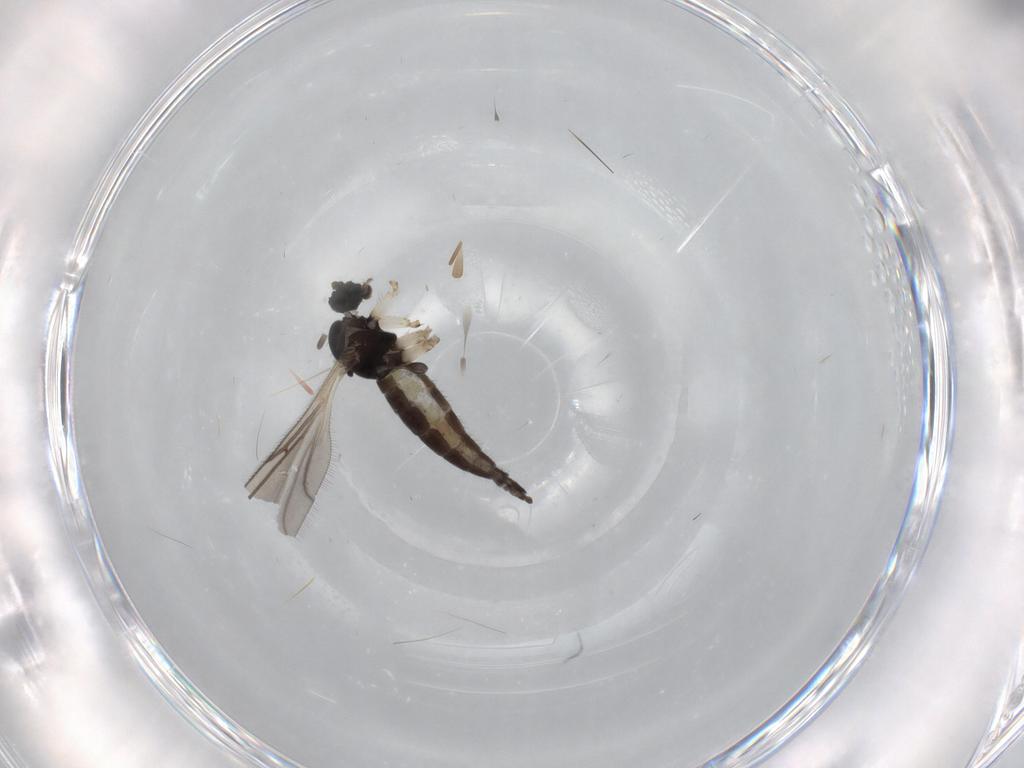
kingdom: Animalia
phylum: Arthropoda
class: Insecta
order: Diptera
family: Sciaridae
